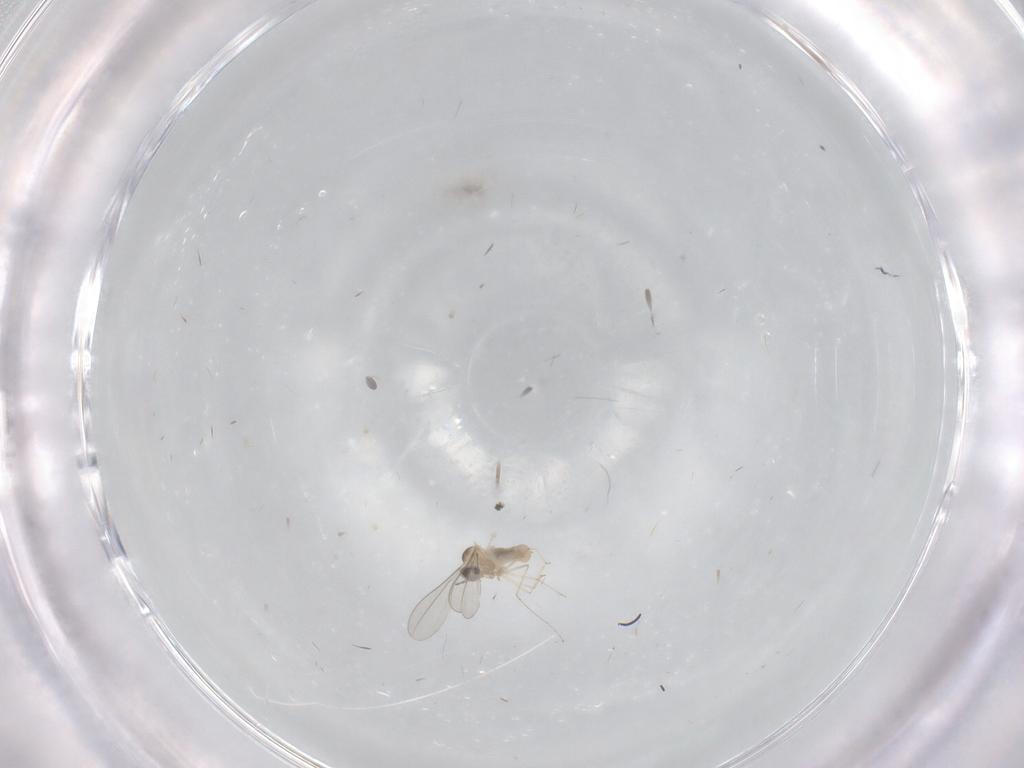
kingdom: Animalia
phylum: Arthropoda
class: Insecta
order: Diptera
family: Cecidomyiidae
